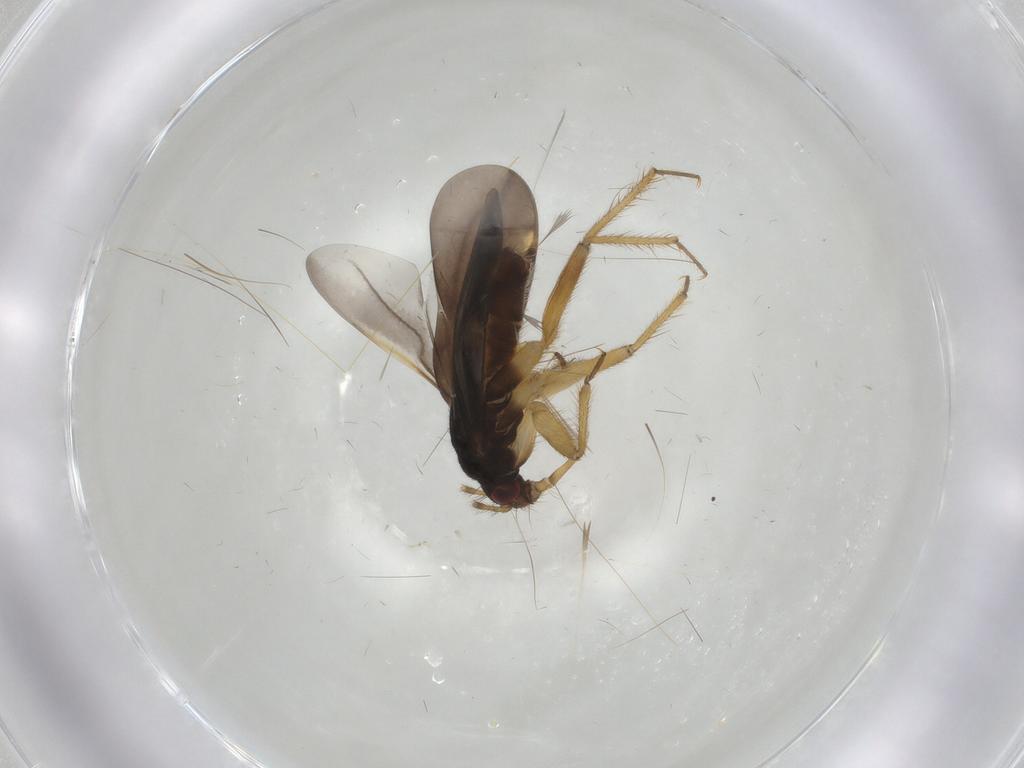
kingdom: Animalia
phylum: Arthropoda
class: Insecta
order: Hemiptera
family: Ceratocombidae
